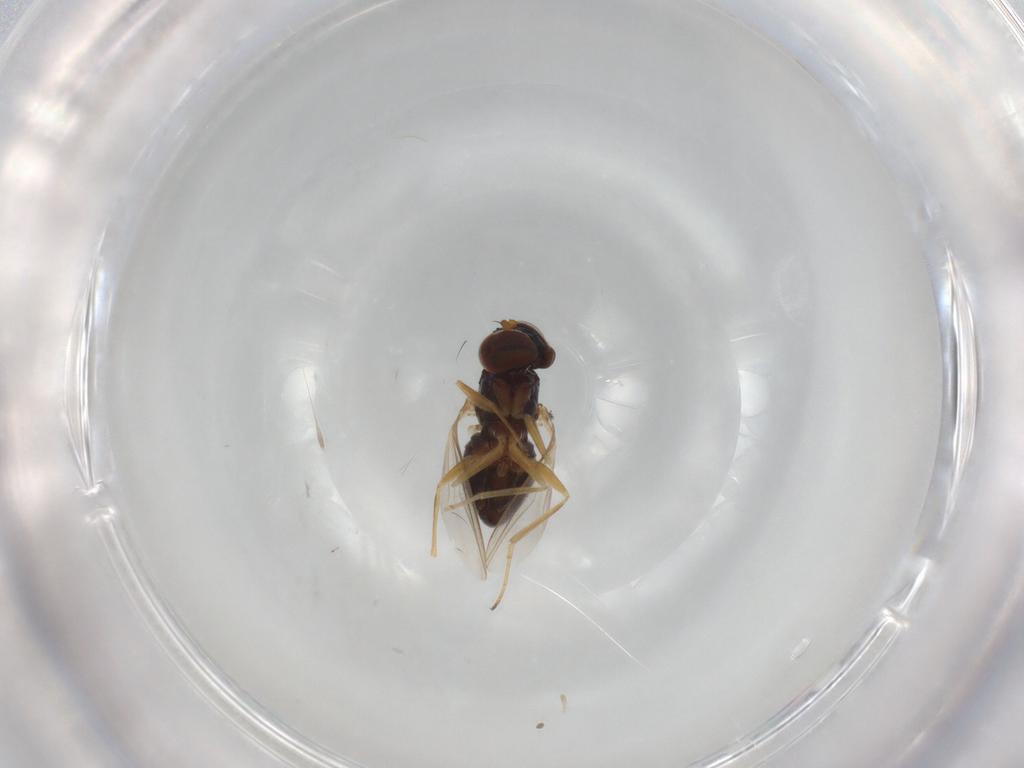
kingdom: Animalia
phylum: Arthropoda
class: Insecta
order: Diptera
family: Dolichopodidae
